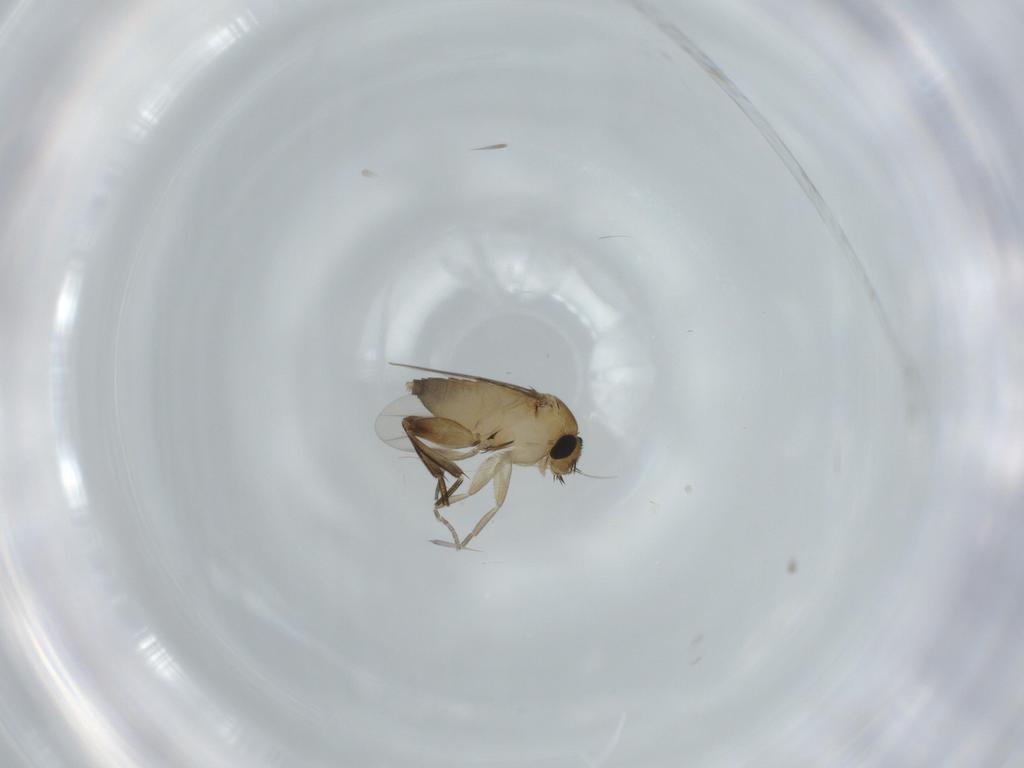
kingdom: Animalia
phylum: Arthropoda
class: Insecta
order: Diptera
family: Phoridae
